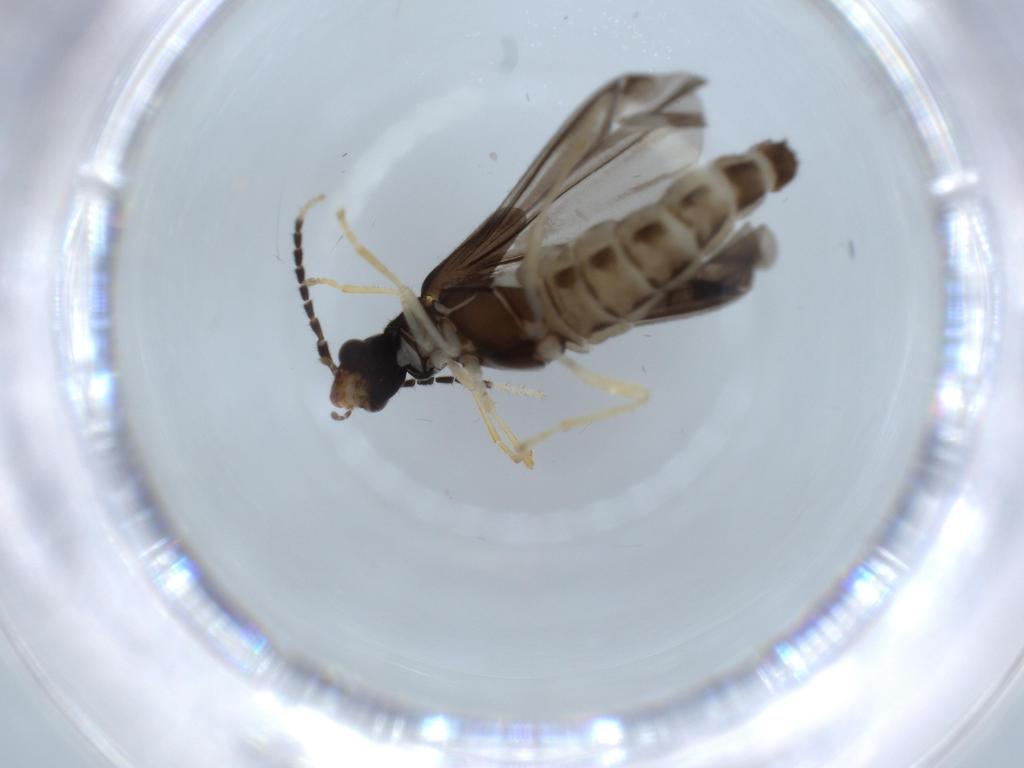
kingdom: Animalia
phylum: Arthropoda
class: Insecta
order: Coleoptera
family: Cantharidae
